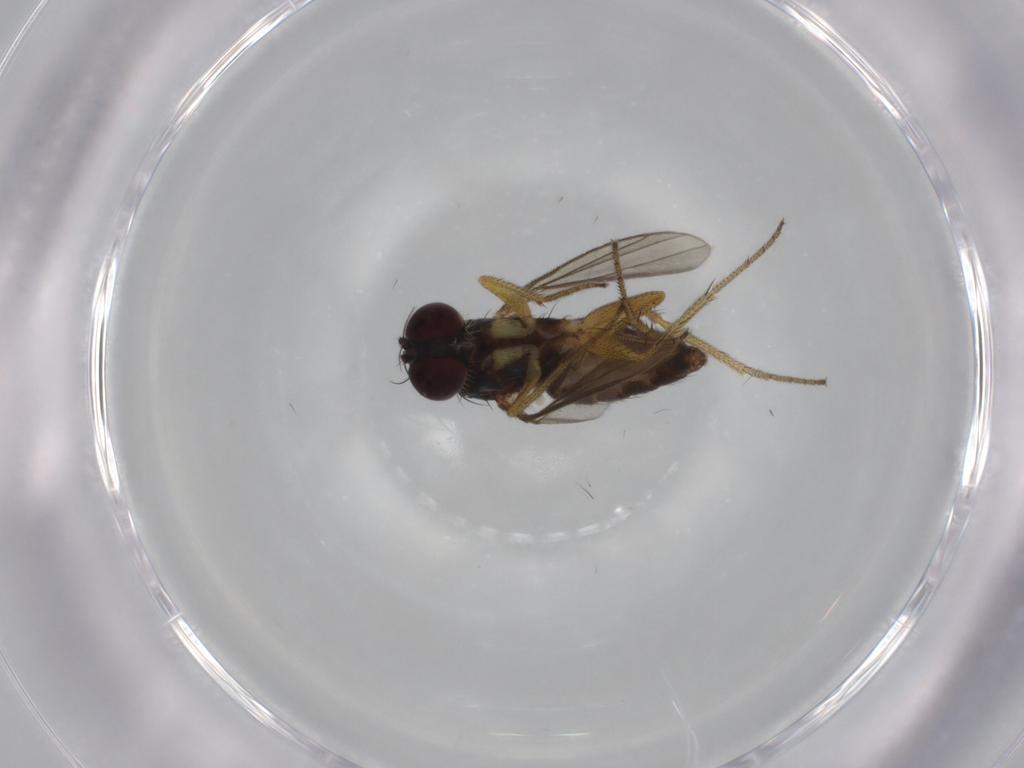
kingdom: Animalia
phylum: Arthropoda
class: Insecta
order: Diptera
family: Dolichopodidae
